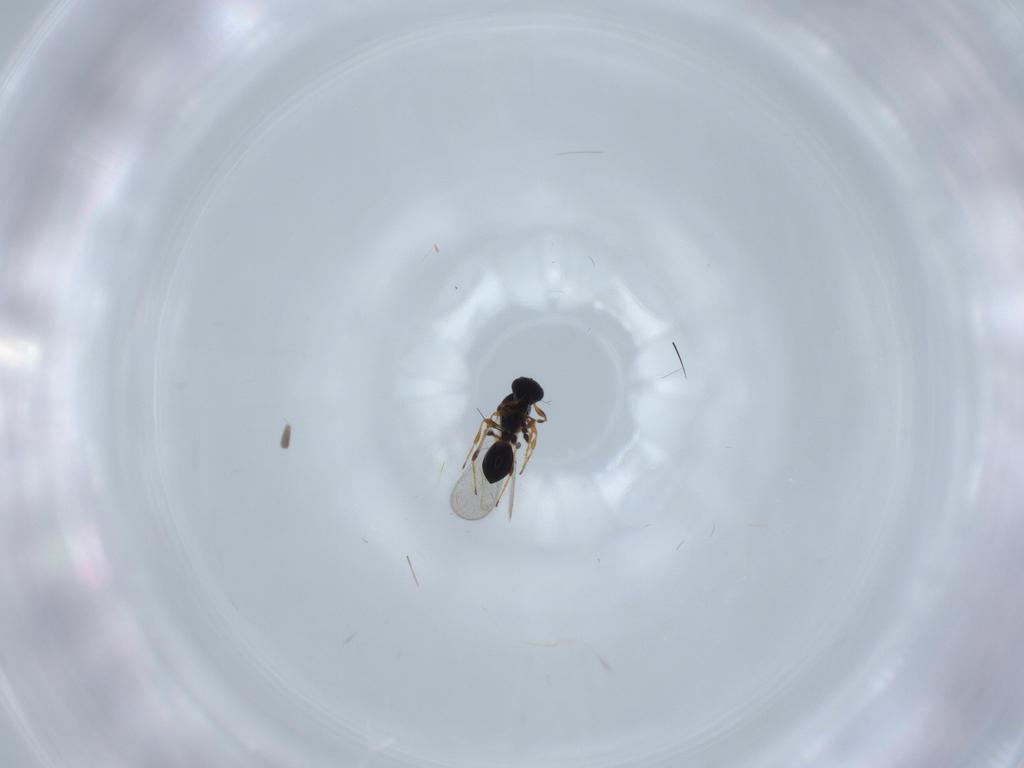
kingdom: Animalia
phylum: Arthropoda
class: Insecta
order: Hymenoptera
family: Platygastridae
